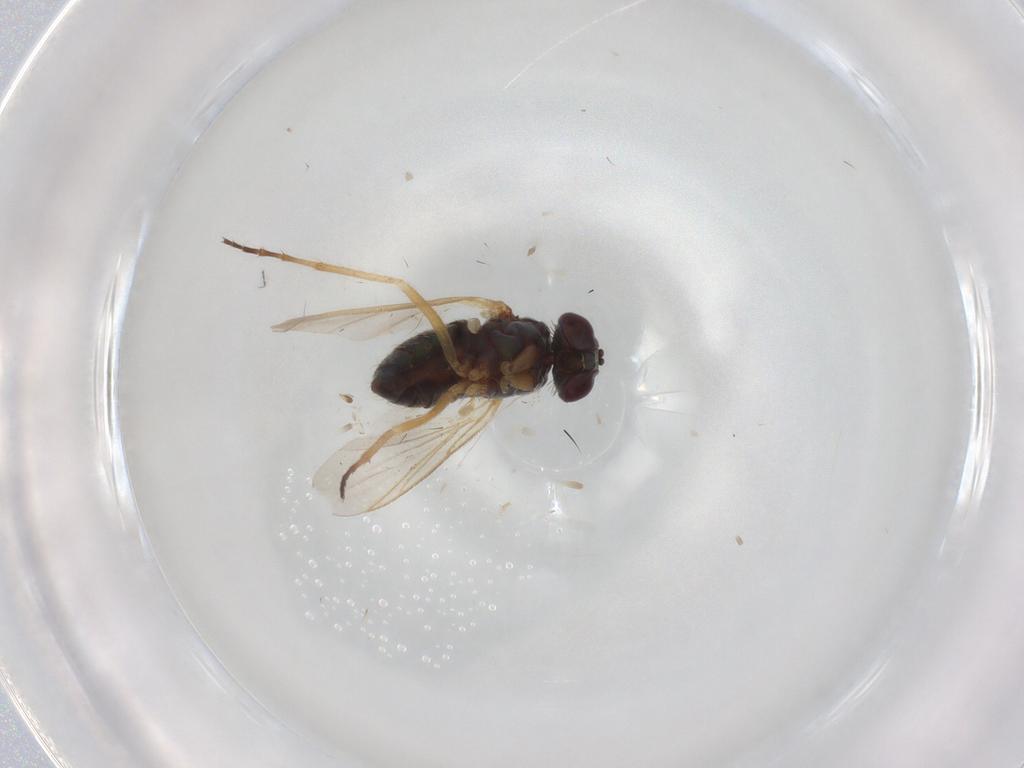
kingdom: Animalia
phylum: Arthropoda
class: Insecta
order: Diptera
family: Dolichopodidae
